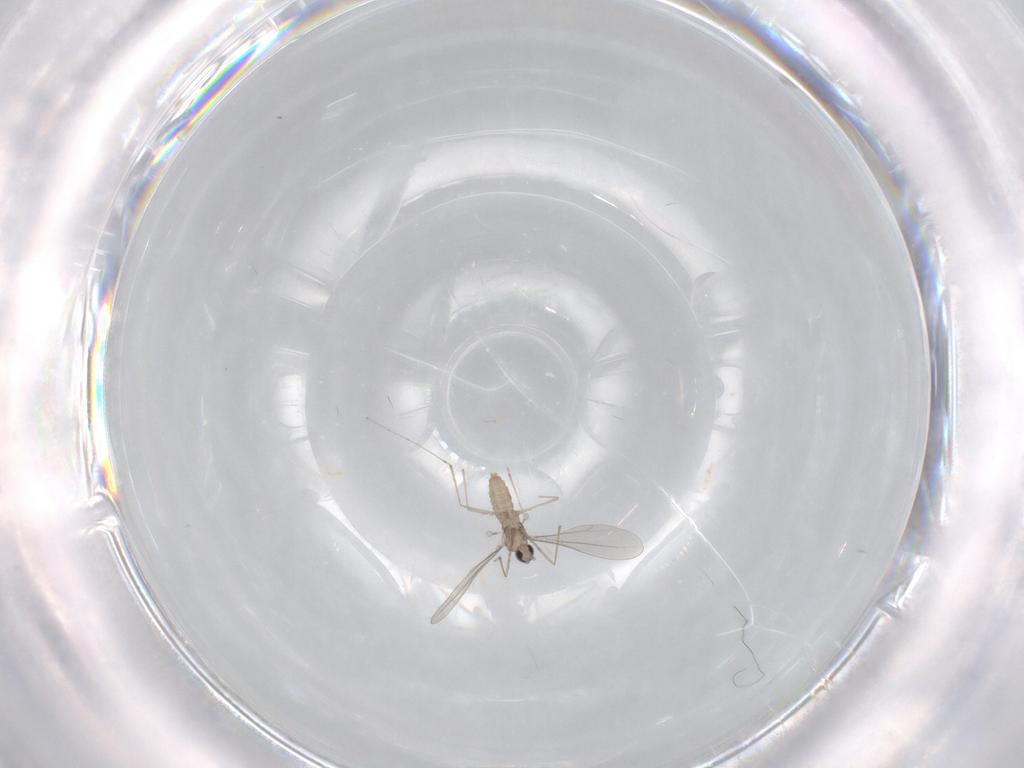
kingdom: Animalia
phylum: Arthropoda
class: Insecta
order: Diptera
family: Cecidomyiidae
